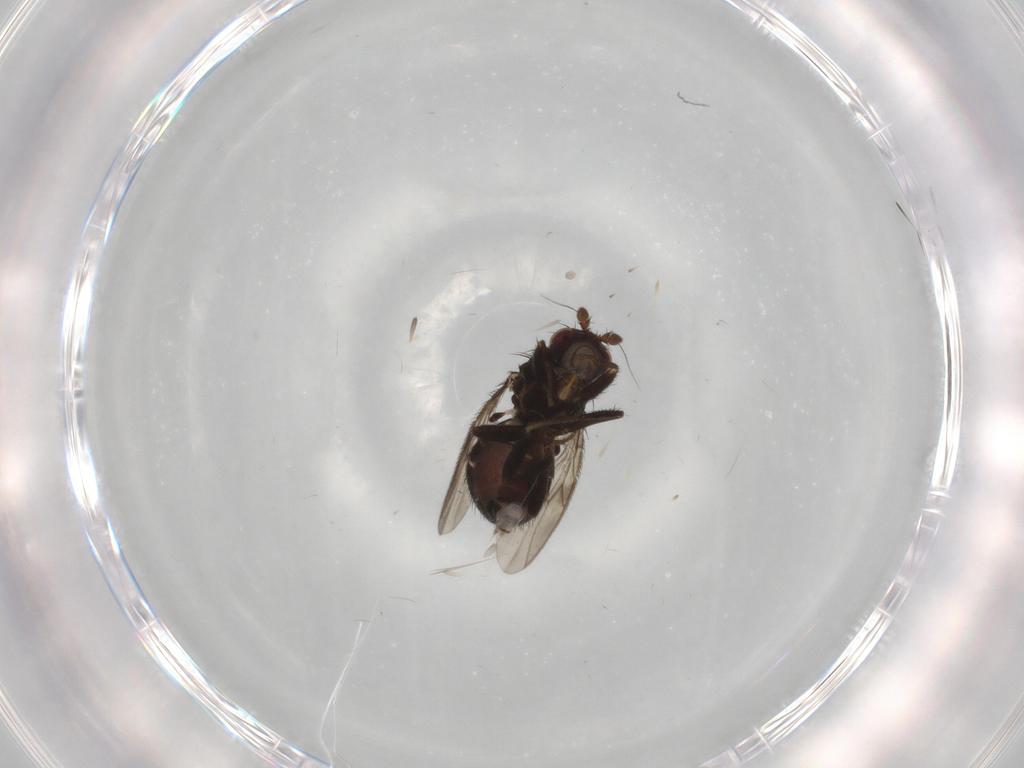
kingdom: Animalia
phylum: Arthropoda
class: Insecta
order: Diptera
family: Sphaeroceridae
